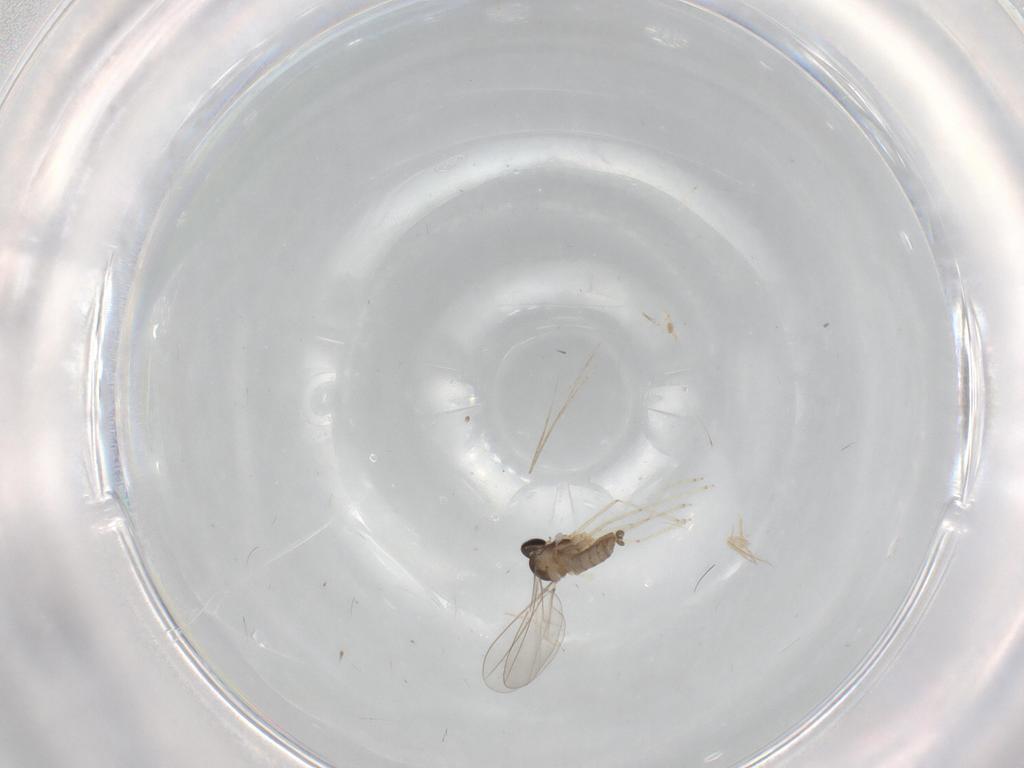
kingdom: Animalia
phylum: Arthropoda
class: Insecta
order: Diptera
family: Cecidomyiidae
